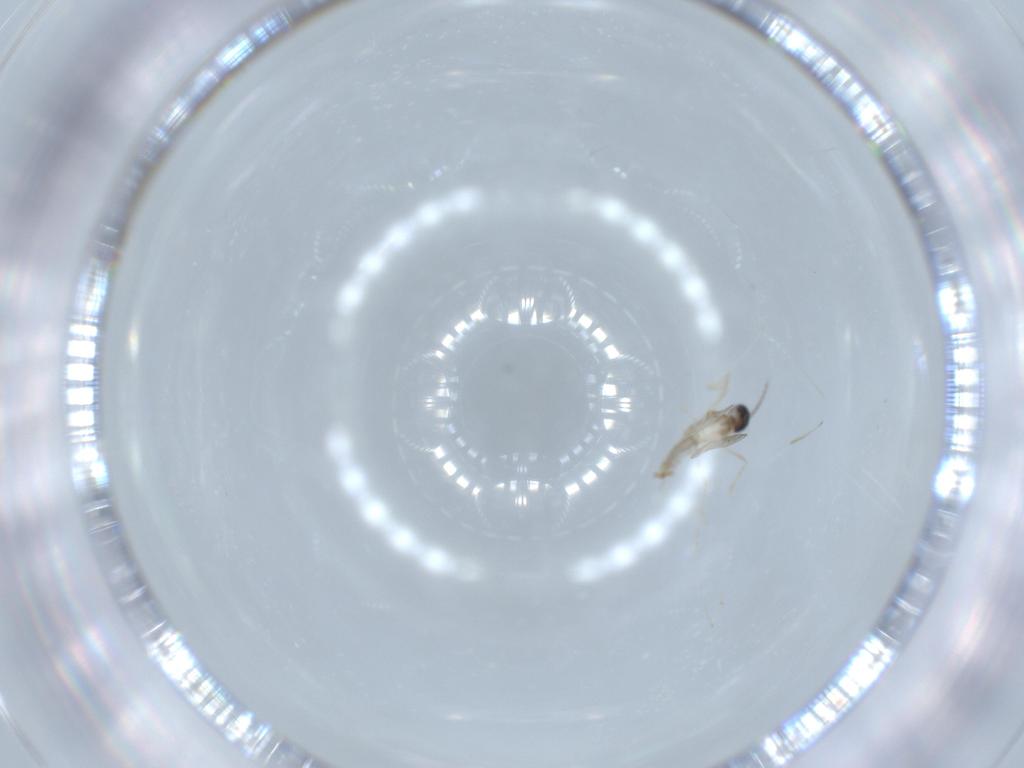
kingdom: Animalia
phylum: Arthropoda
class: Insecta
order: Diptera
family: Cecidomyiidae
